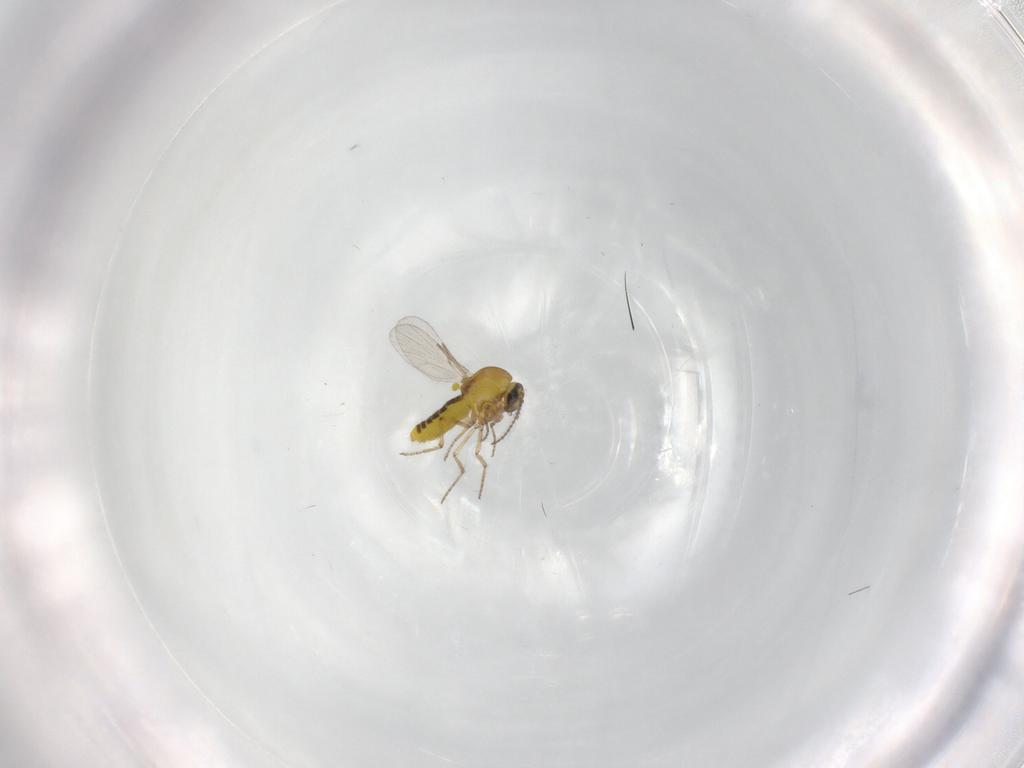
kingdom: Animalia
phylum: Arthropoda
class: Insecta
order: Diptera
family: Ceratopogonidae
